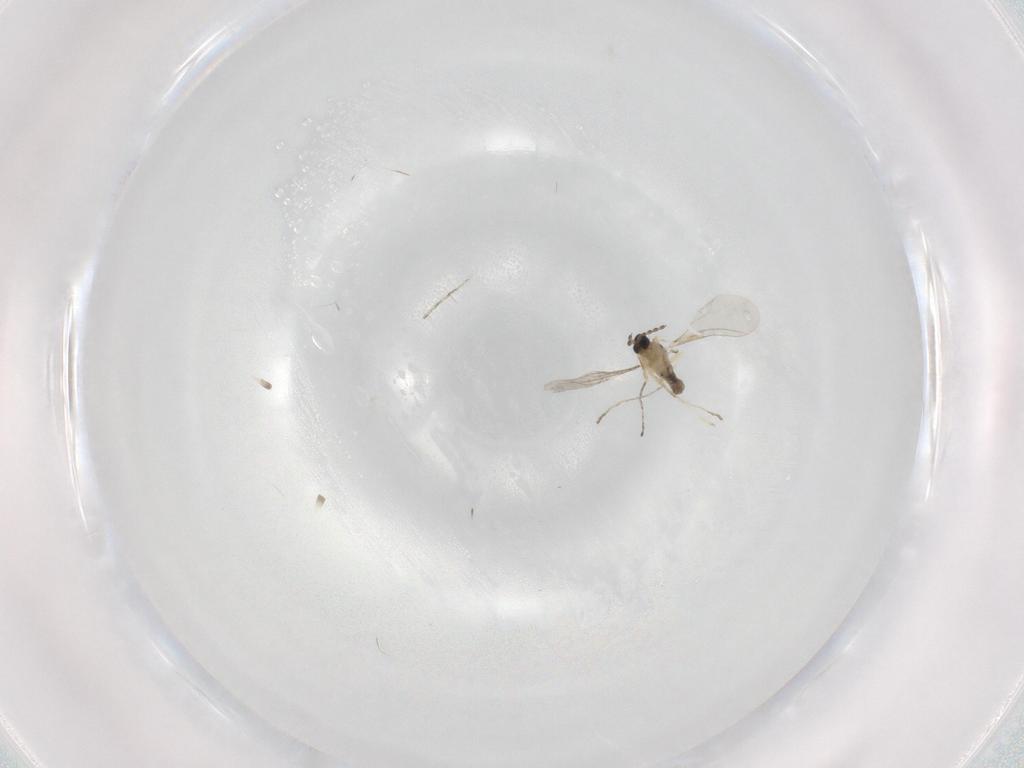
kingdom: Animalia
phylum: Arthropoda
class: Insecta
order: Diptera
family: Cecidomyiidae
